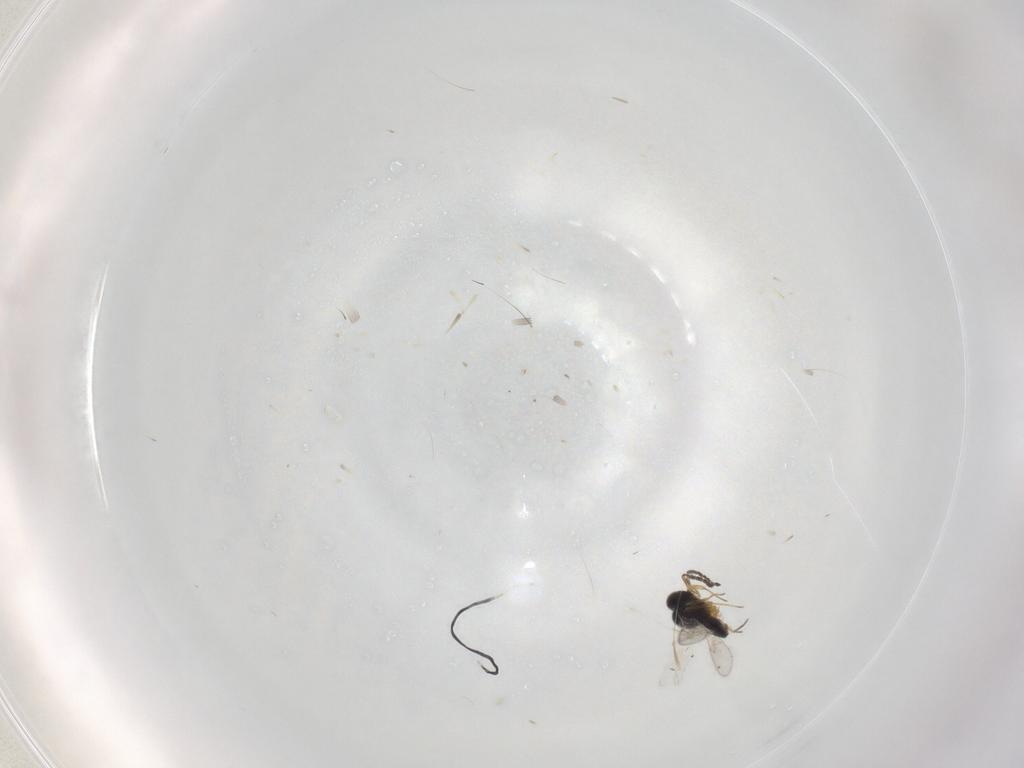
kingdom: Animalia
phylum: Arthropoda
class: Insecta
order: Hymenoptera
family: Scelionidae
